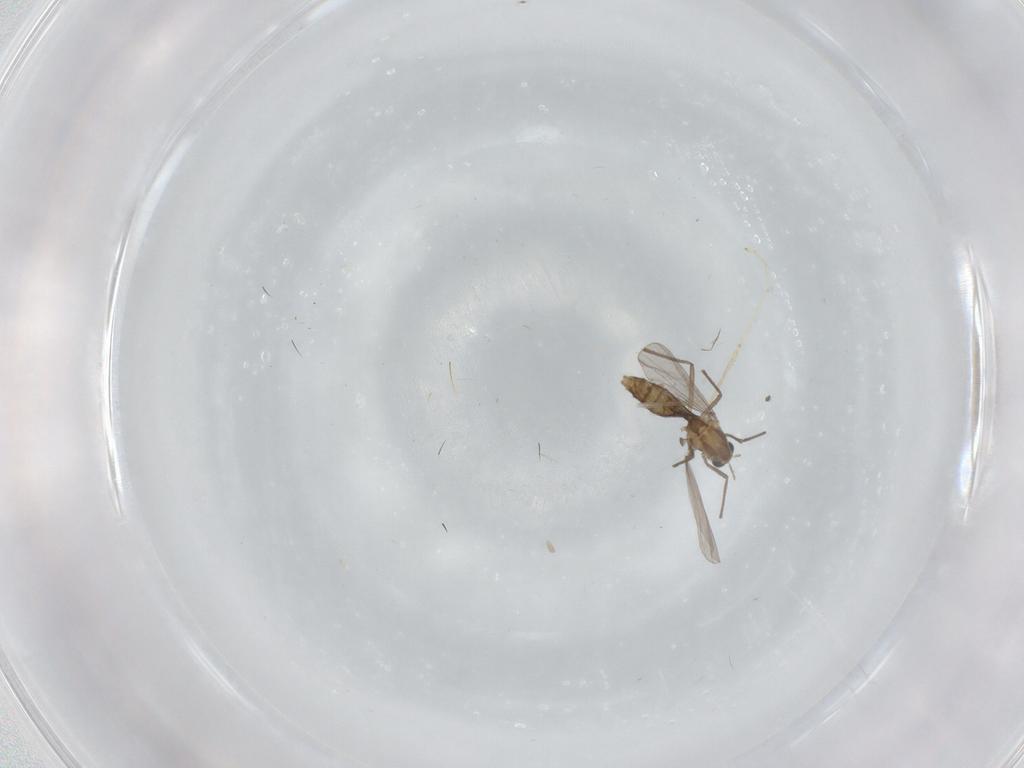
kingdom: Animalia
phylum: Arthropoda
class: Insecta
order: Diptera
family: Cecidomyiidae
